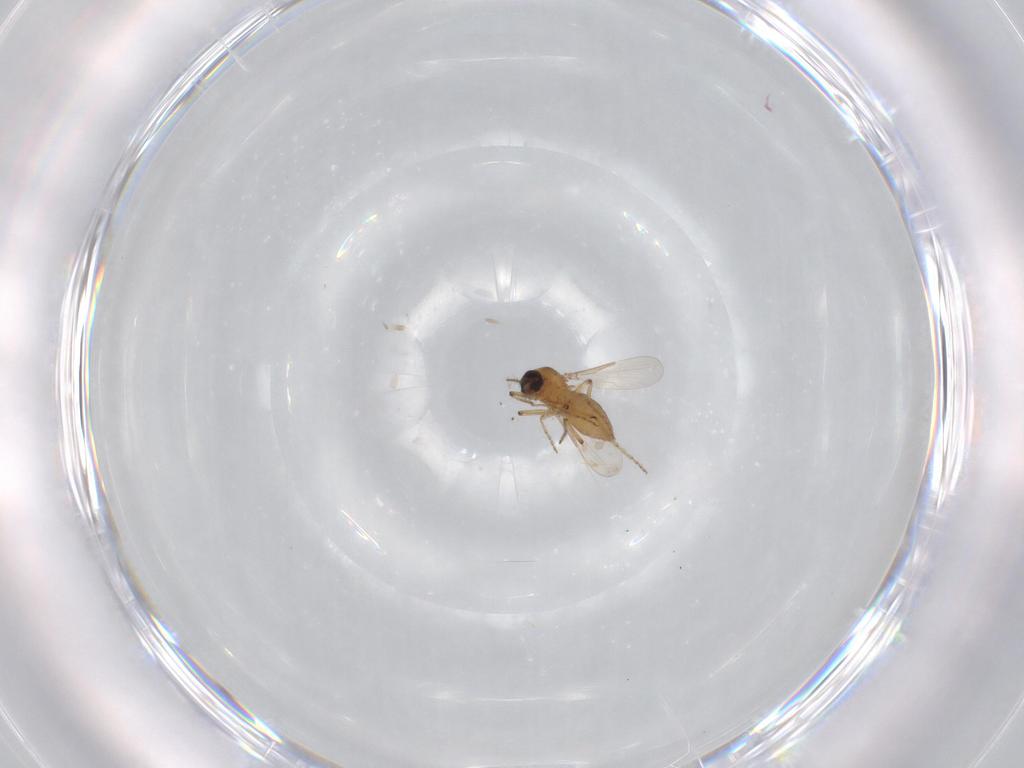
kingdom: Animalia
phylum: Arthropoda
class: Insecta
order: Diptera
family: Ceratopogonidae
